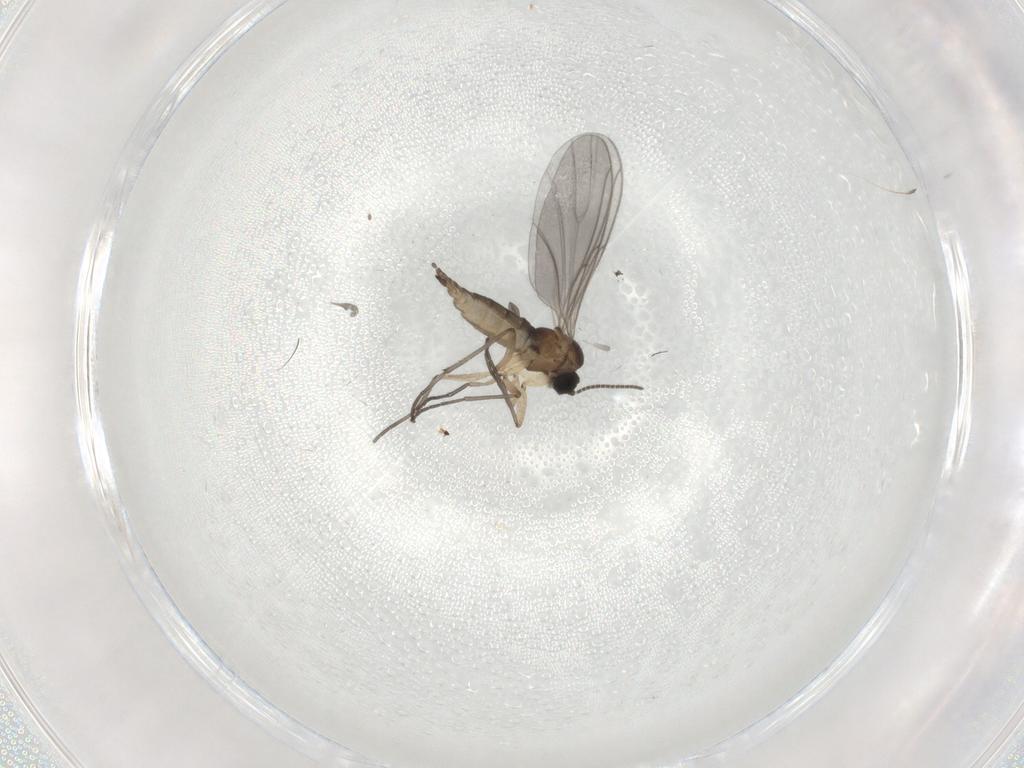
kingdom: Animalia
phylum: Arthropoda
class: Insecta
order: Diptera
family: Sciaridae
